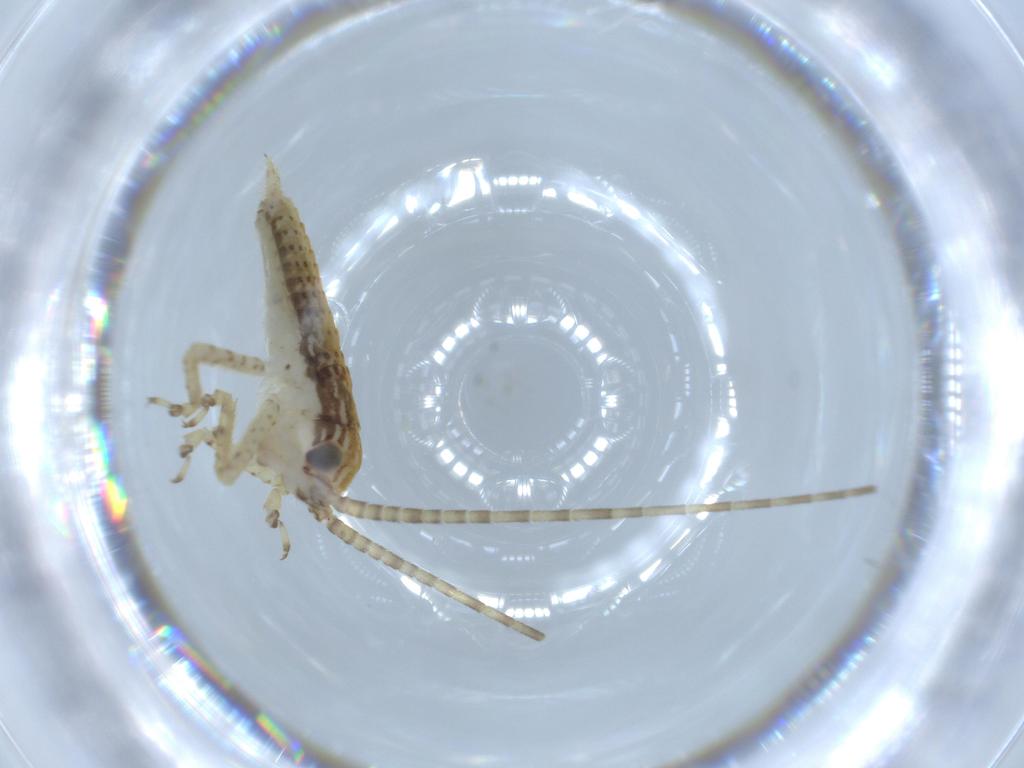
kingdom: Animalia
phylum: Arthropoda
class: Insecta
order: Orthoptera
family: Gryllidae
